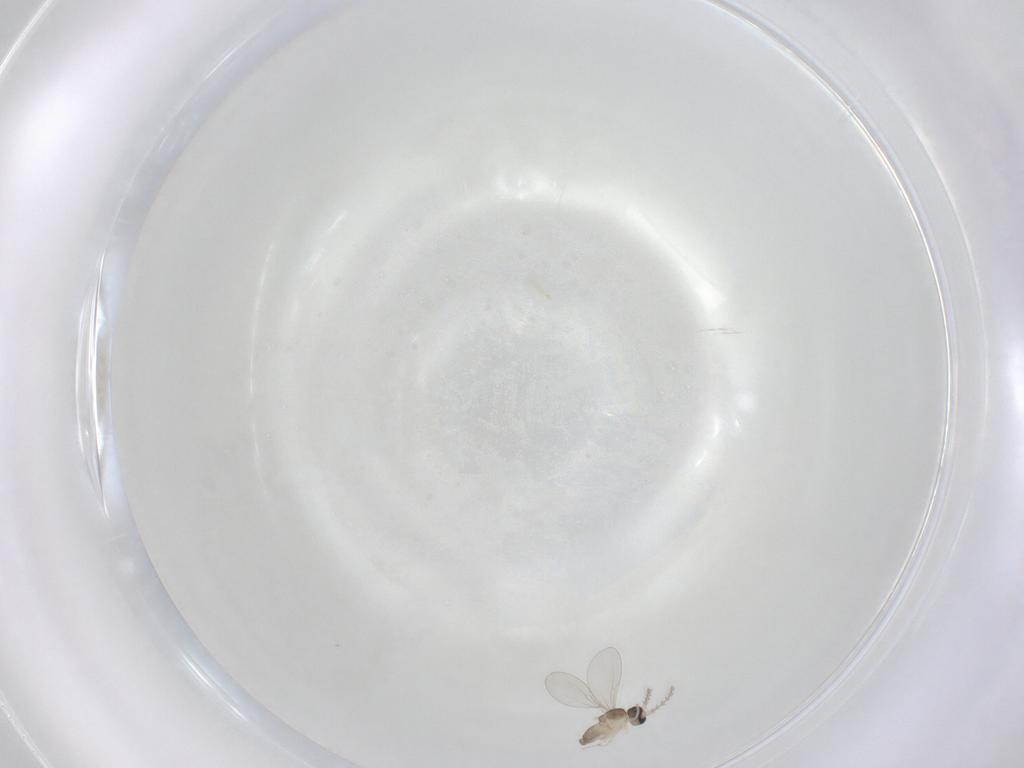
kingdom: Animalia
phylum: Arthropoda
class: Insecta
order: Diptera
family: Cecidomyiidae
